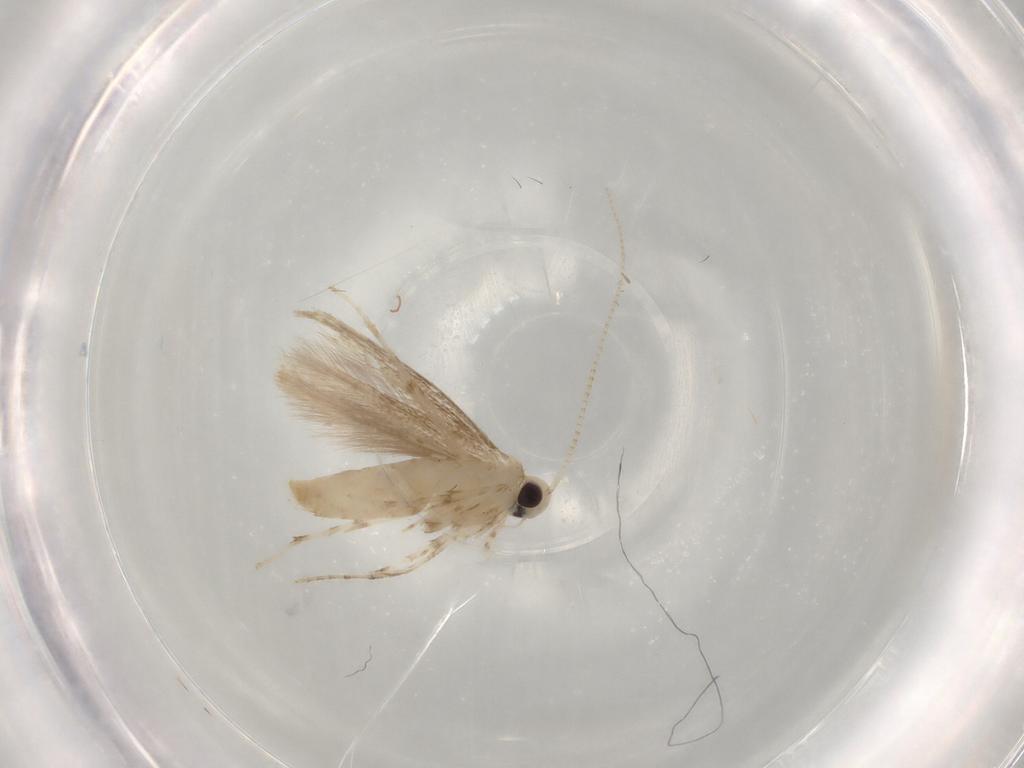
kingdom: Animalia
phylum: Arthropoda
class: Insecta
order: Lepidoptera
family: Gracillariidae
